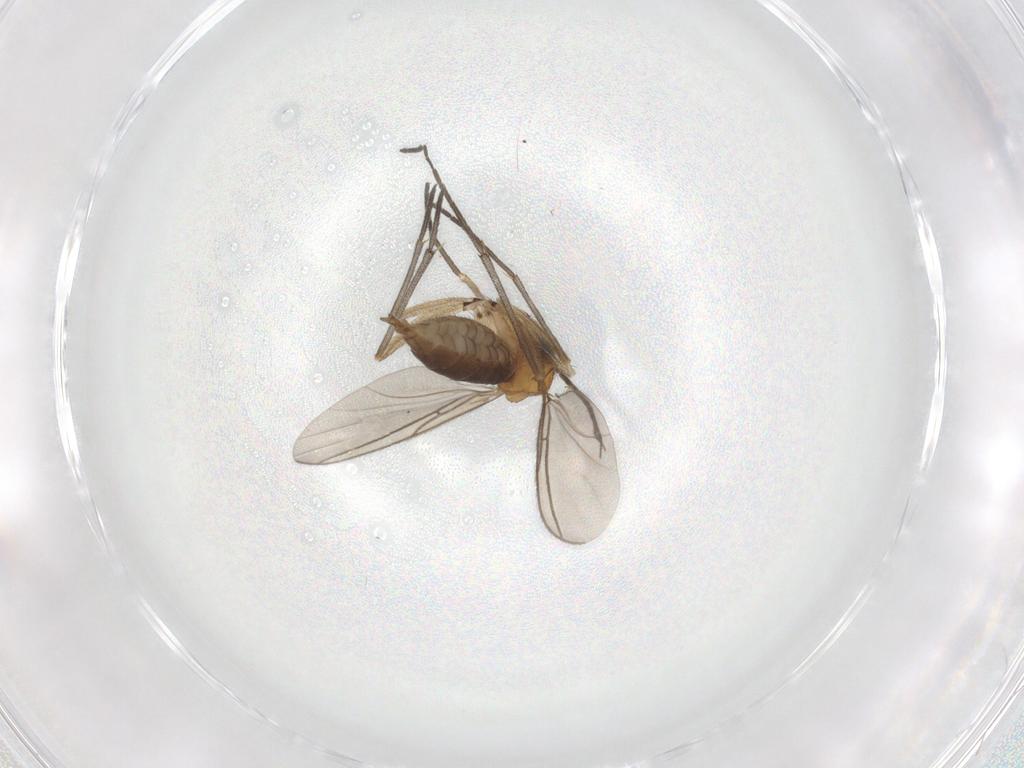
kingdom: Animalia
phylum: Arthropoda
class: Insecta
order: Diptera
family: Sciaridae
